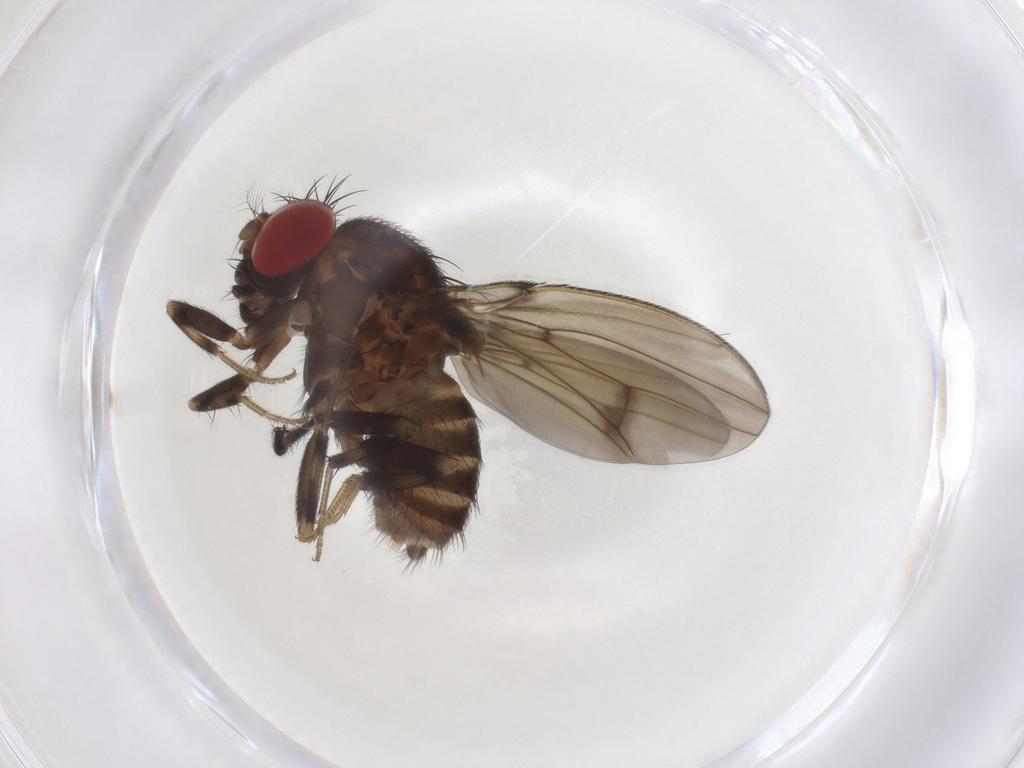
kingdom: Animalia
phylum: Arthropoda
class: Insecta
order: Diptera
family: Drosophilidae
